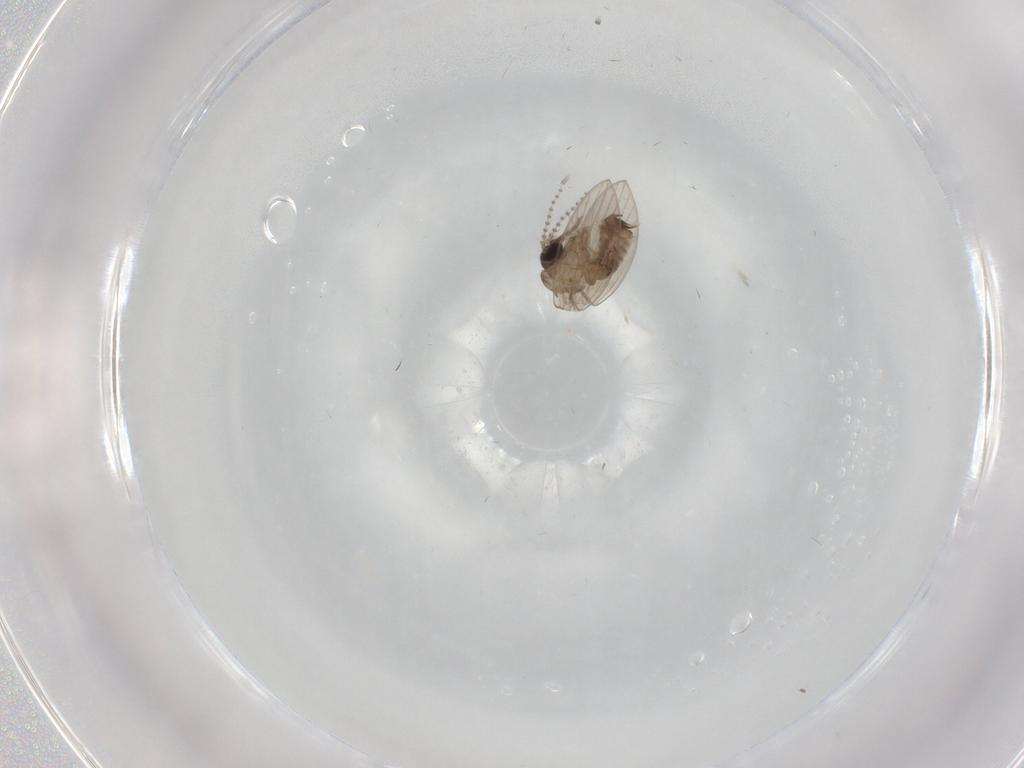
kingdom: Animalia
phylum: Arthropoda
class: Insecta
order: Diptera
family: Psychodidae
